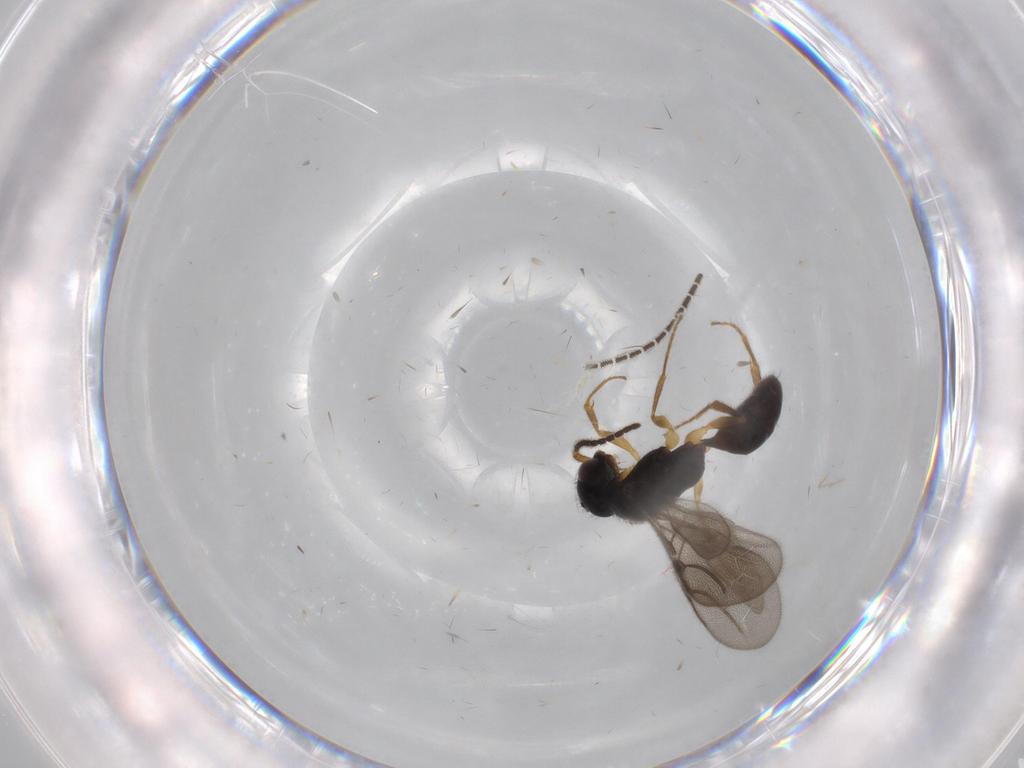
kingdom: Animalia
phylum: Arthropoda
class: Insecta
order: Hymenoptera
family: Bethylidae
